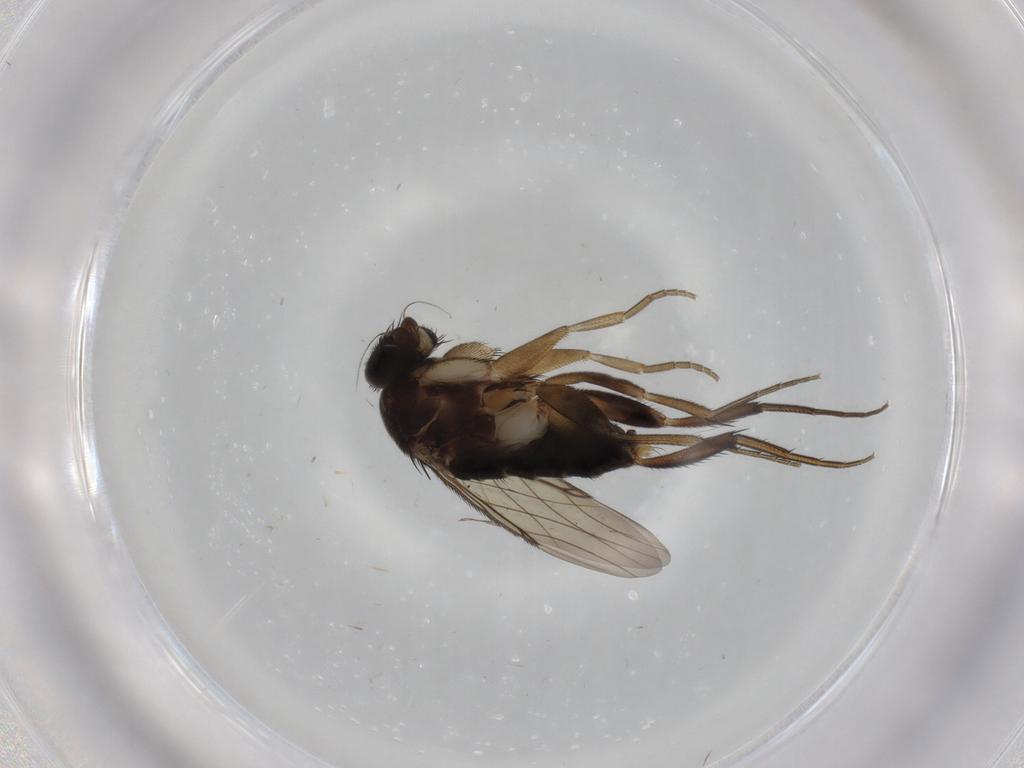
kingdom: Animalia
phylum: Arthropoda
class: Insecta
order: Diptera
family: Phoridae
